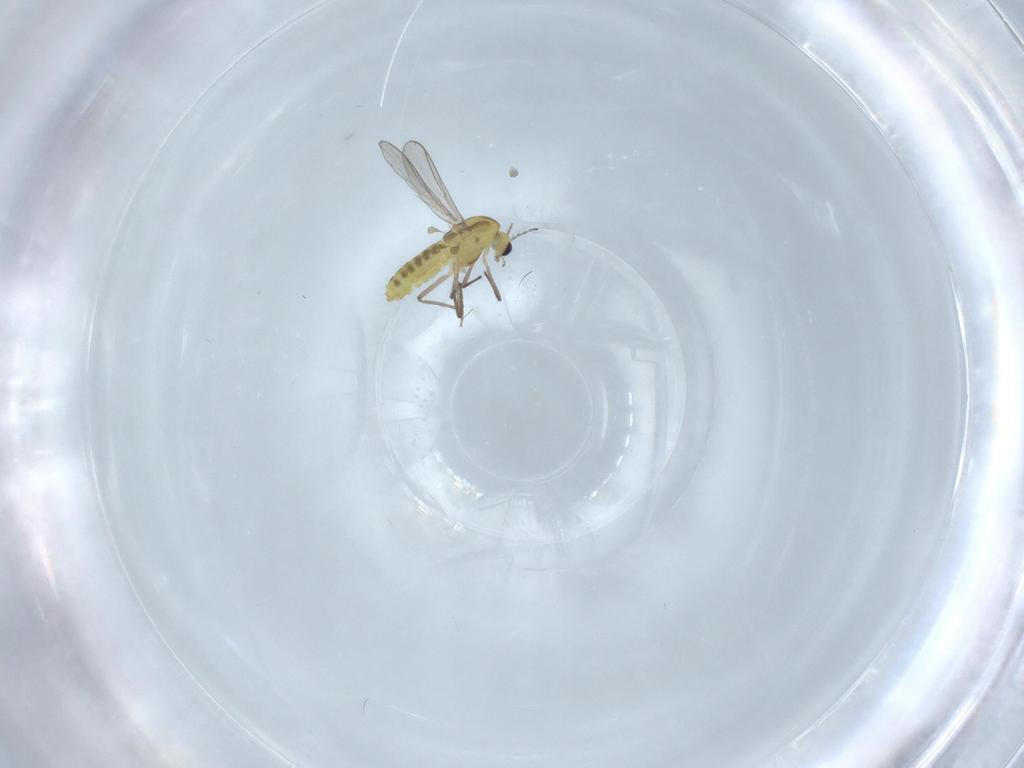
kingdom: Animalia
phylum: Arthropoda
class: Insecta
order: Diptera
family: Chironomidae
